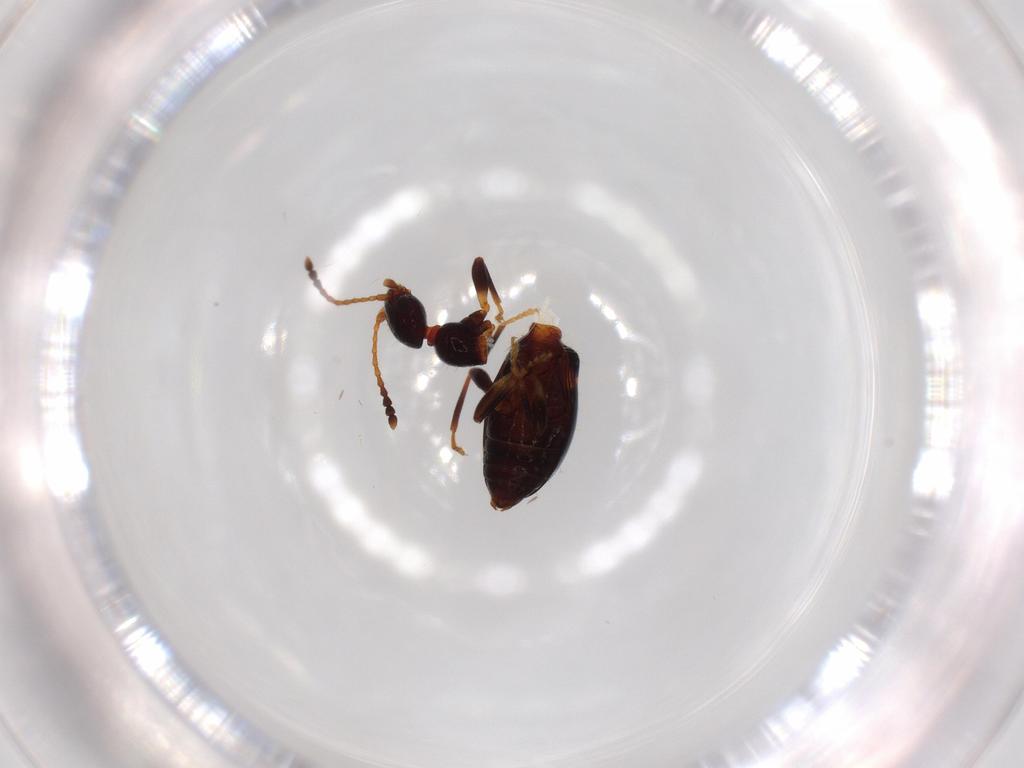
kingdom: Animalia
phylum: Arthropoda
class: Insecta
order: Coleoptera
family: Anthicidae
